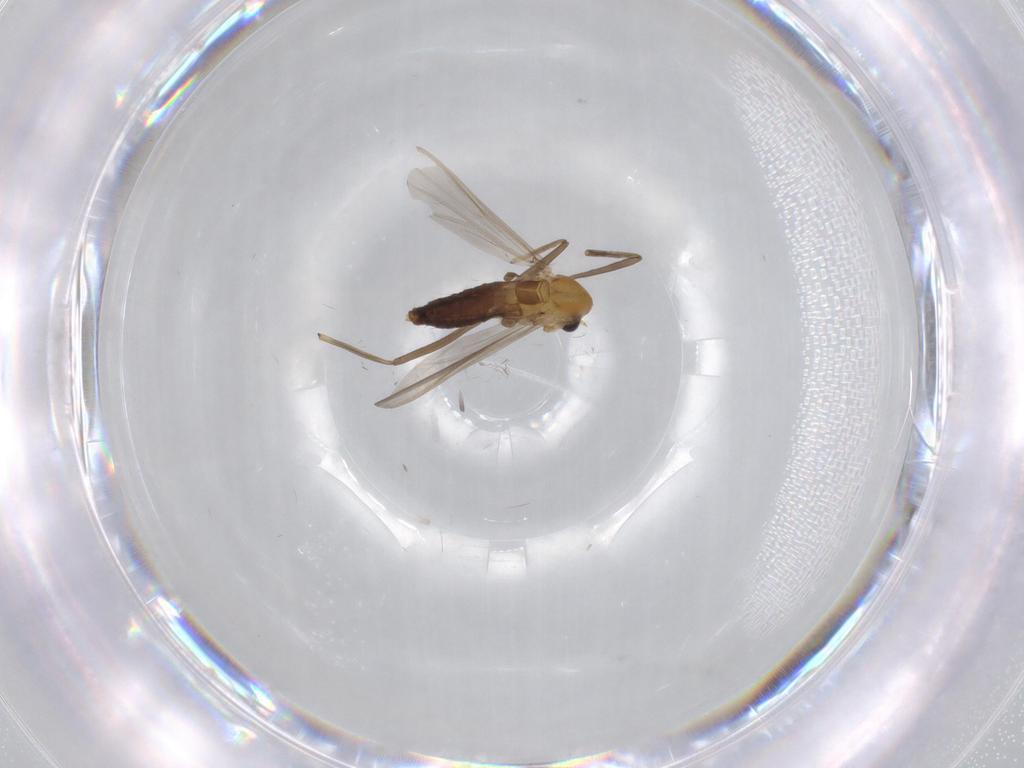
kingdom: Animalia
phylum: Arthropoda
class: Insecta
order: Diptera
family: Chironomidae
